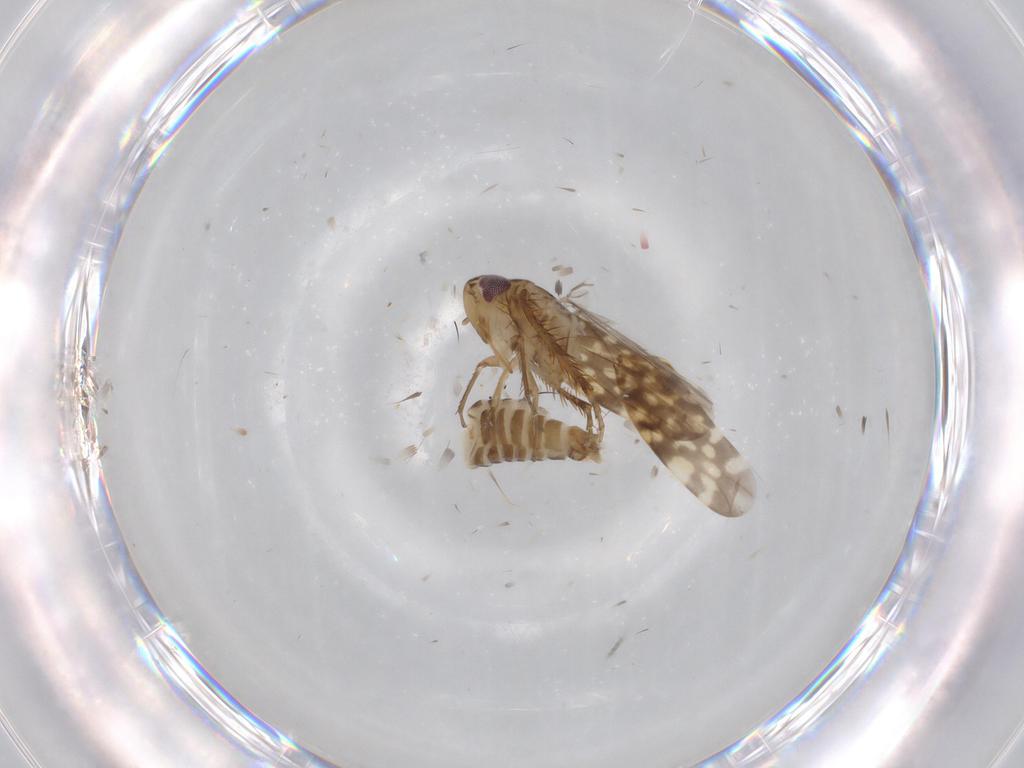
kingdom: Animalia
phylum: Arthropoda
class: Insecta
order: Hemiptera
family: Cicadellidae
